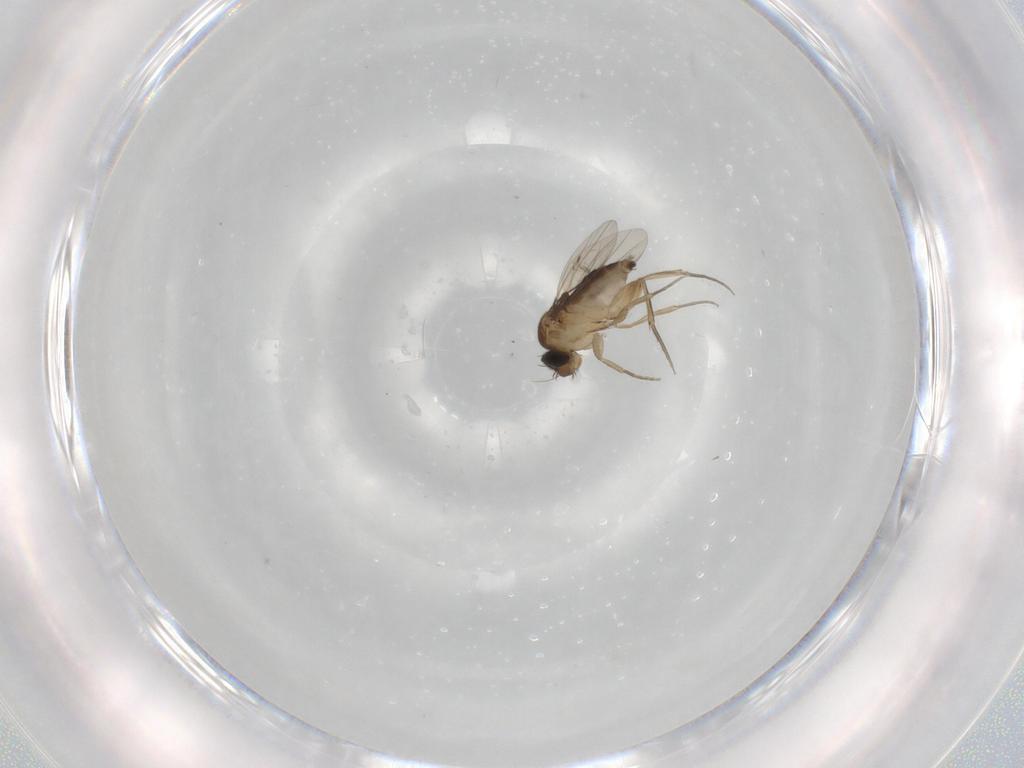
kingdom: Animalia
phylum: Arthropoda
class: Insecta
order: Diptera
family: Phoridae
